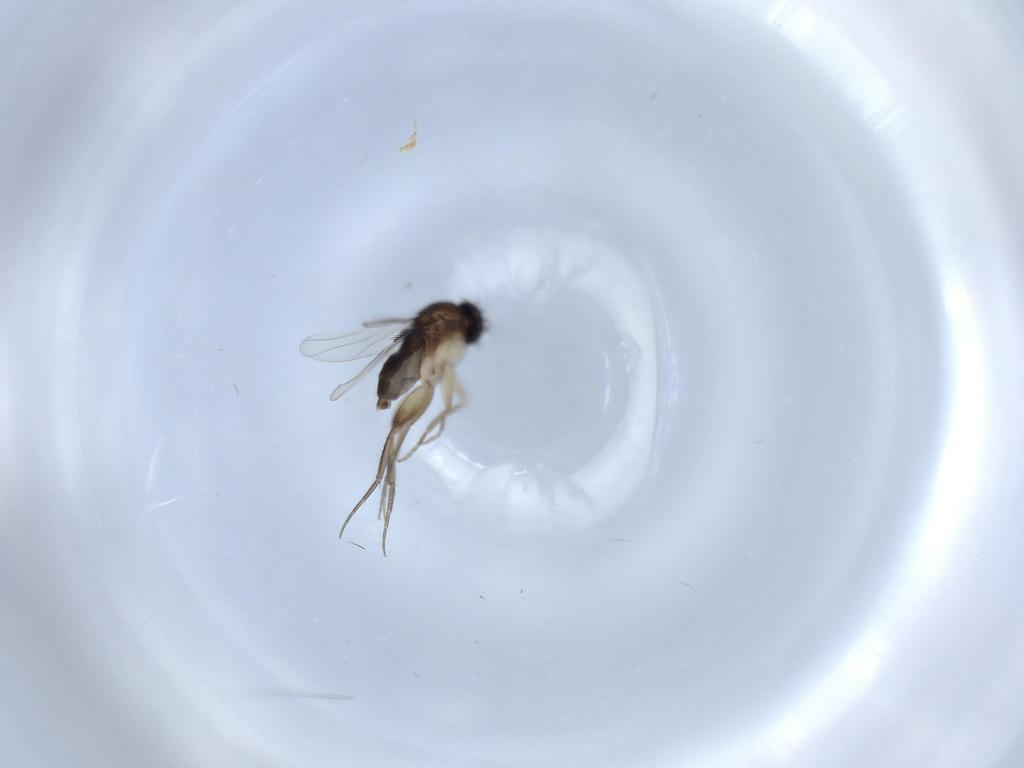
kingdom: Animalia
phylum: Arthropoda
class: Insecta
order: Diptera
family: Phoridae
